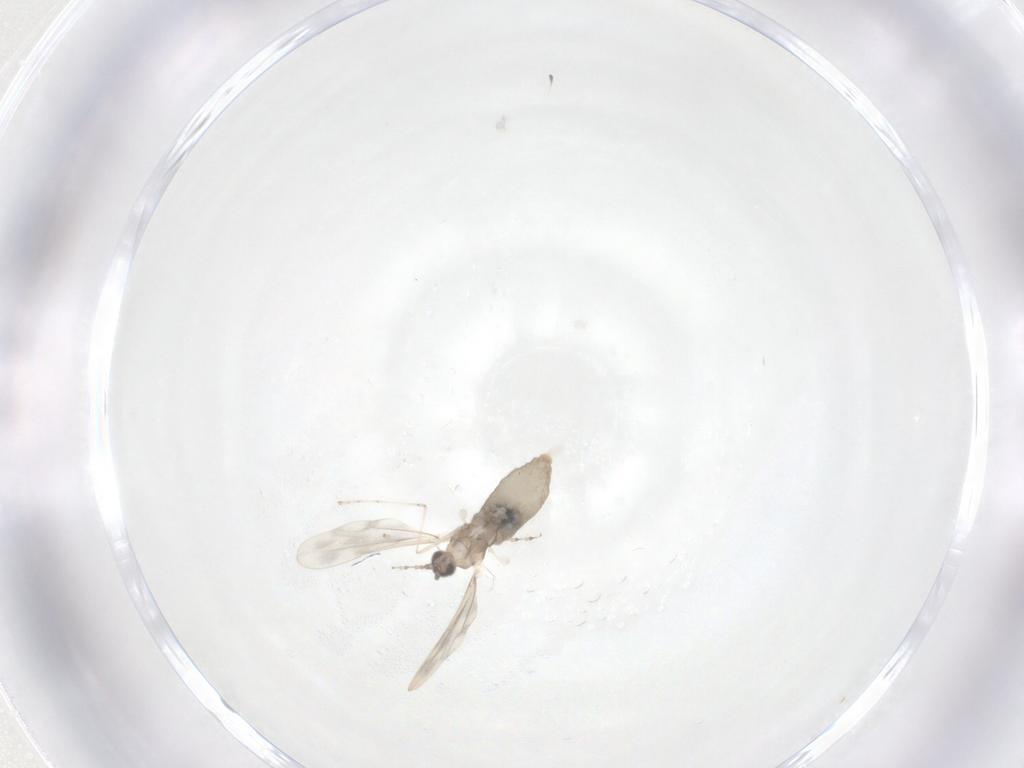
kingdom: Animalia
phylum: Arthropoda
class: Insecta
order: Diptera
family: Cecidomyiidae
